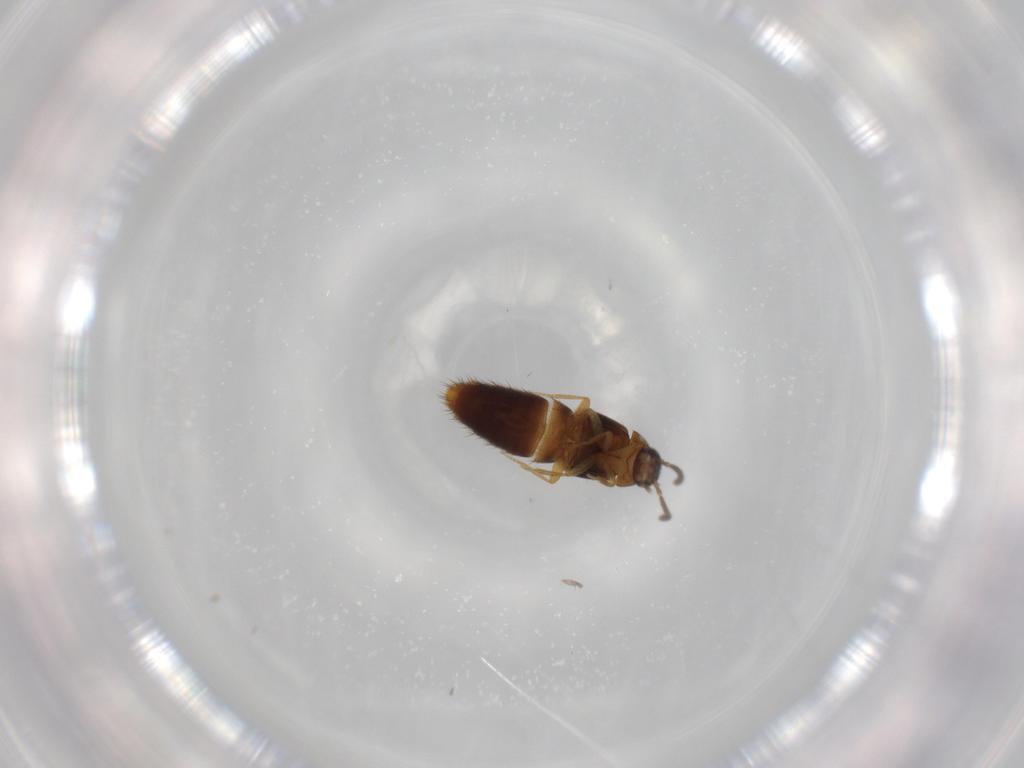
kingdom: Animalia
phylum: Arthropoda
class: Insecta
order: Coleoptera
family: Staphylinidae
